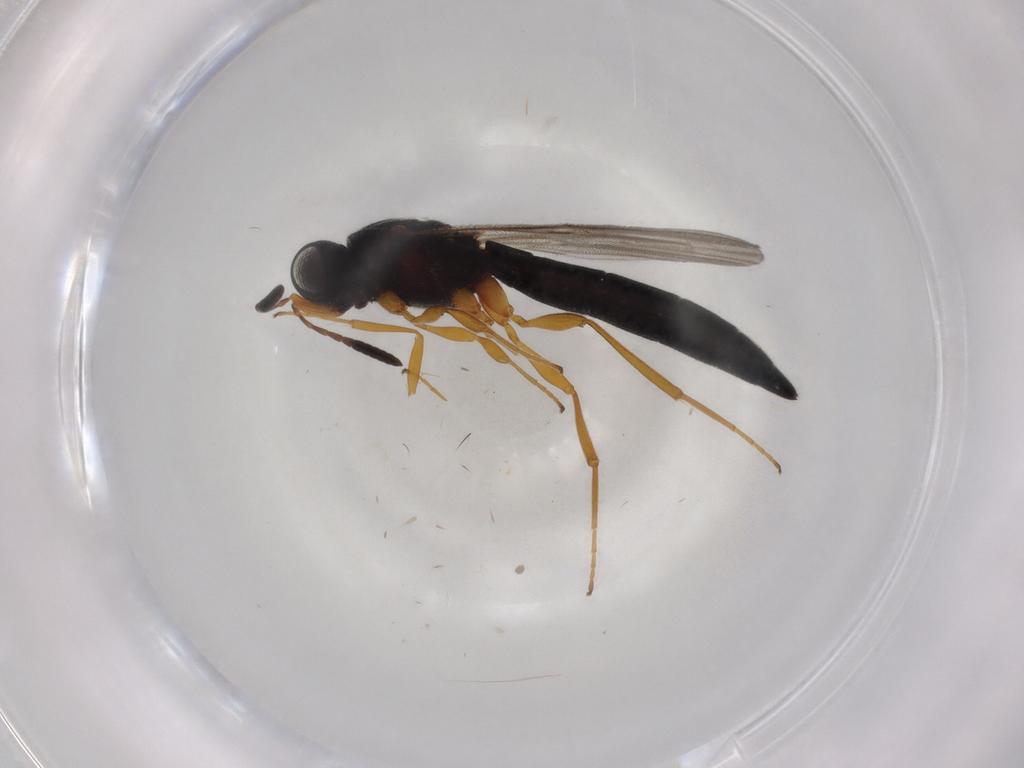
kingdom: Animalia
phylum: Arthropoda
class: Insecta
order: Hymenoptera
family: Scelionidae
